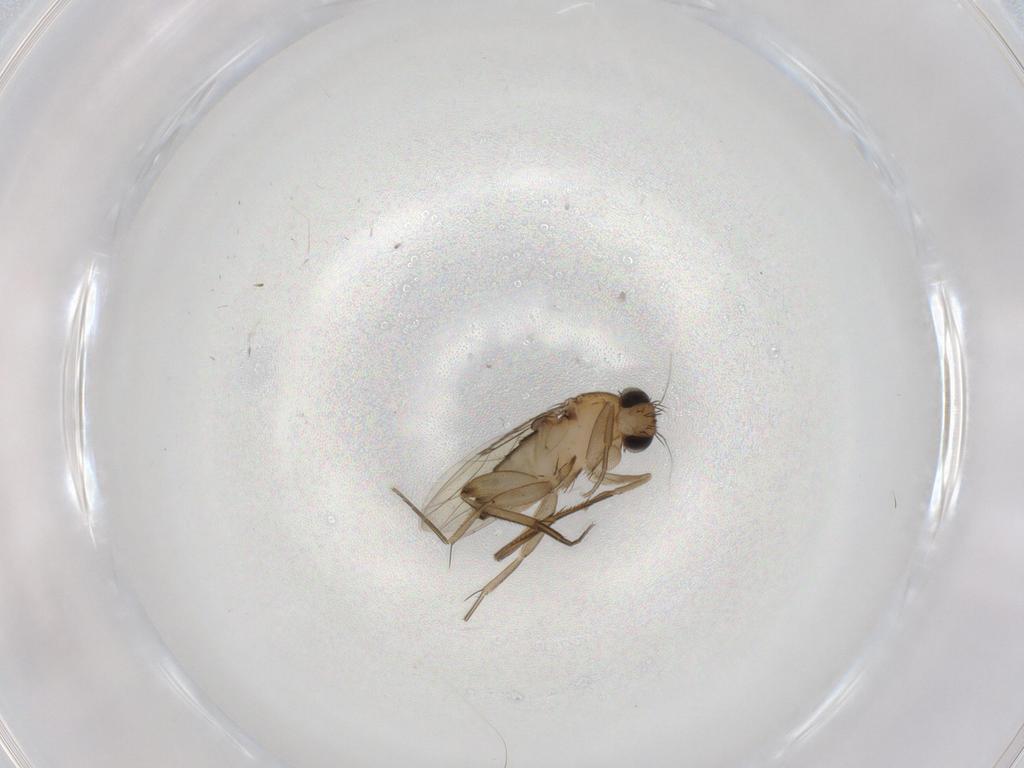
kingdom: Animalia
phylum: Arthropoda
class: Insecta
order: Diptera
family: Phoridae
